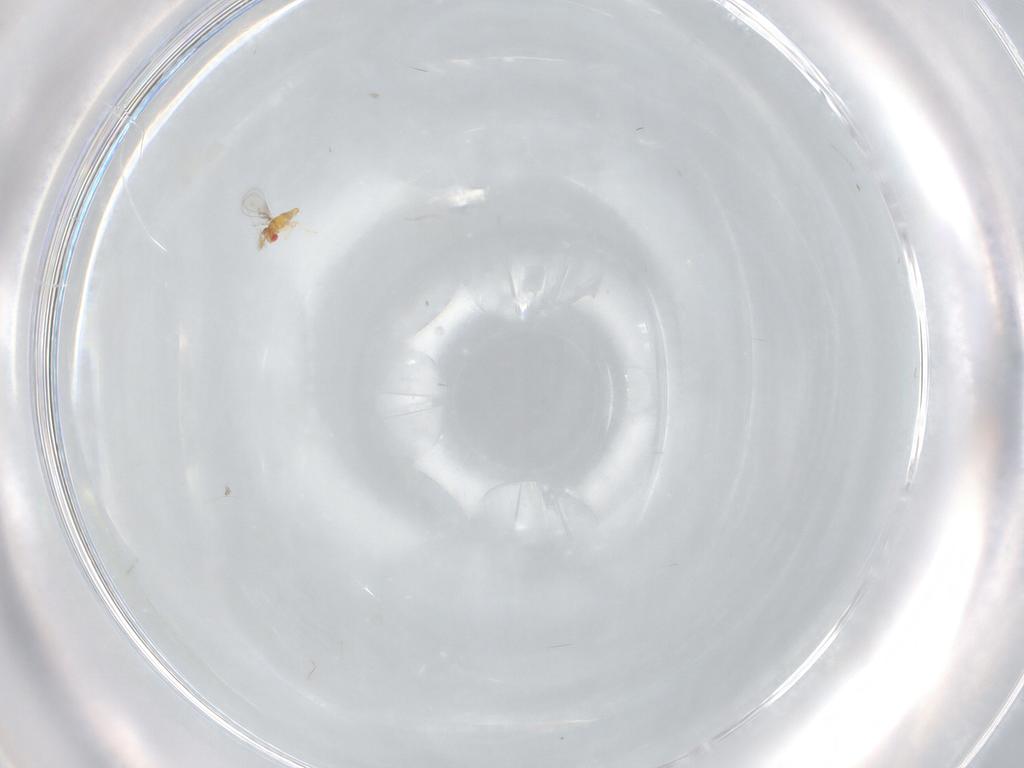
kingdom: Animalia
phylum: Arthropoda
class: Insecta
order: Hymenoptera
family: Trichogrammatidae
